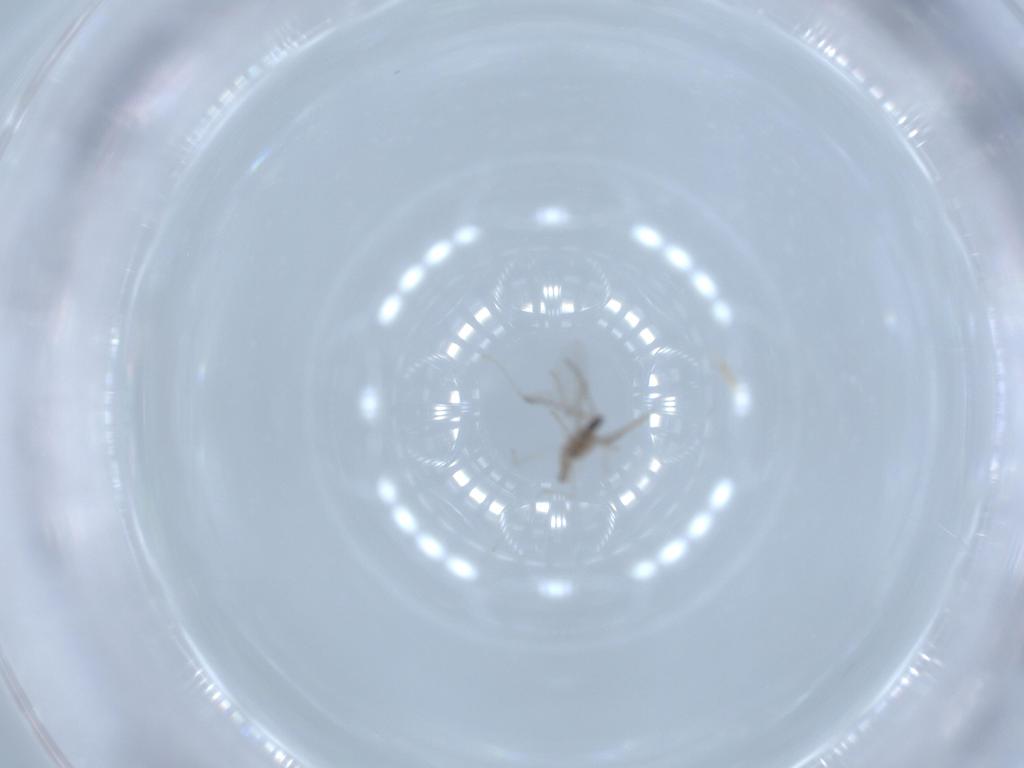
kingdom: Animalia
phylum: Arthropoda
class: Insecta
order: Diptera
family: Cecidomyiidae
